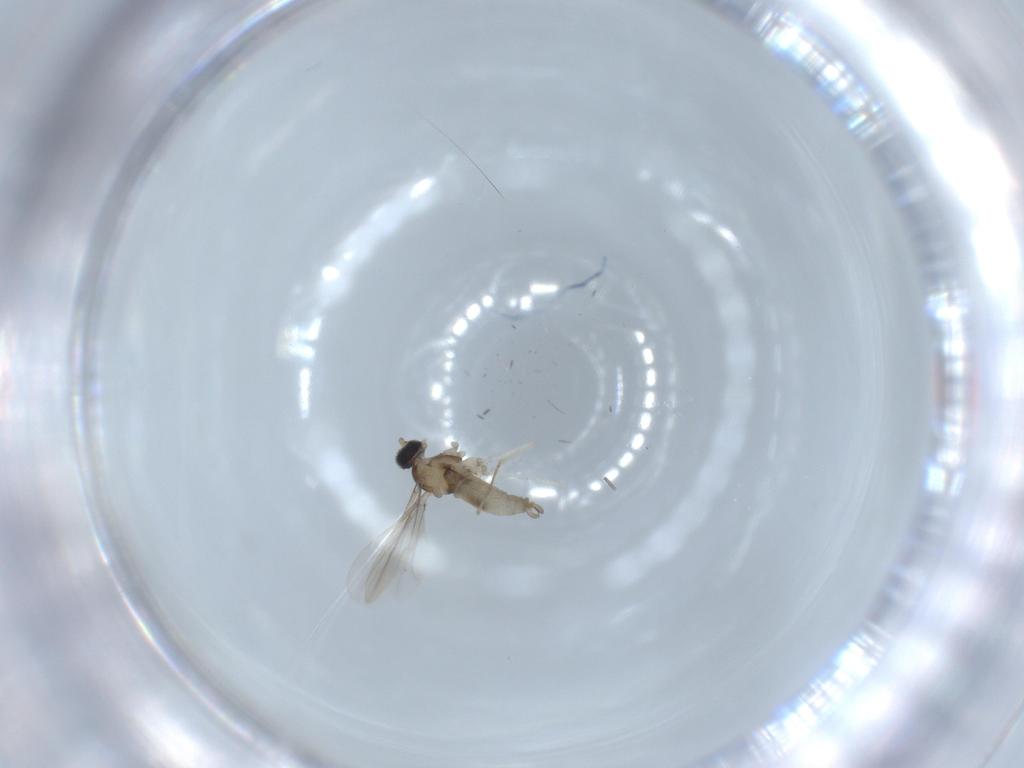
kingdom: Animalia
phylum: Arthropoda
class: Insecta
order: Diptera
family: Cecidomyiidae
